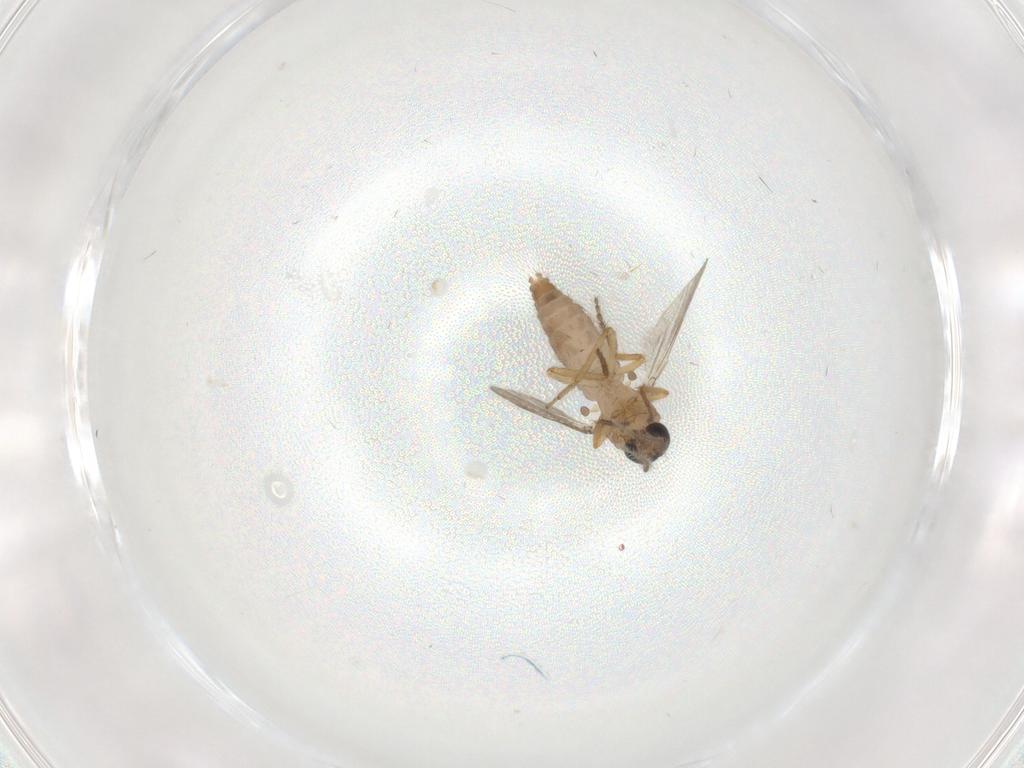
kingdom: Animalia
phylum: Arthropoda
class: Insecta
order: Diptera
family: Ceratopogonidae
